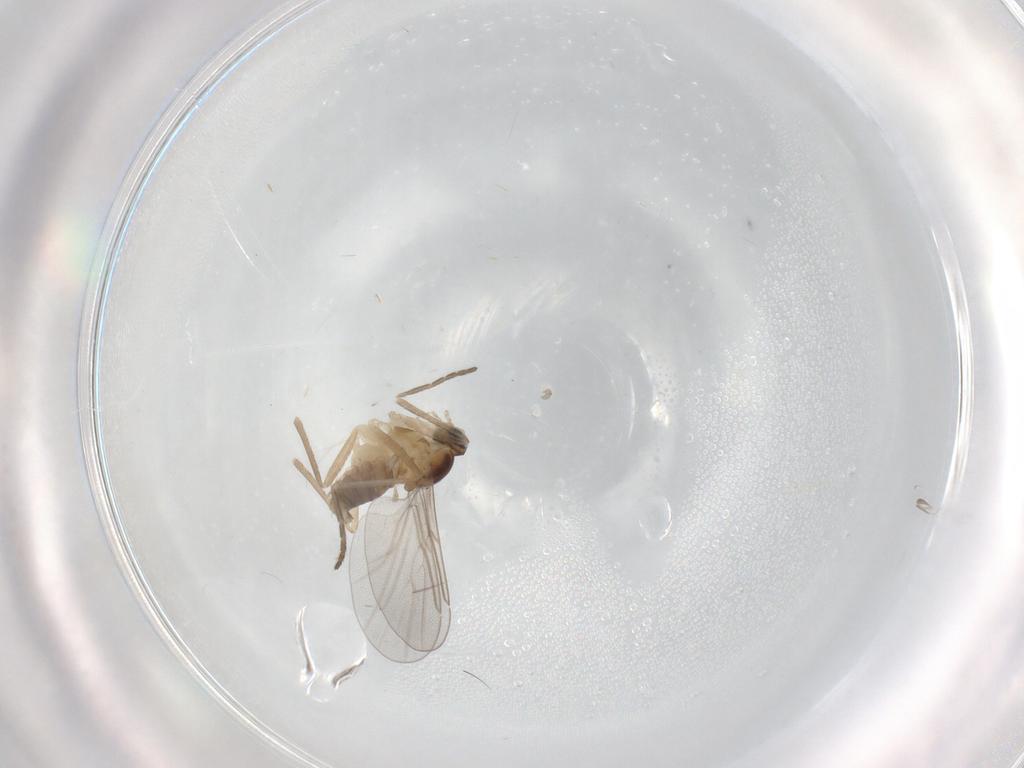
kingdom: Animalia
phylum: Arthropoda
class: Insecta
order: Diptera
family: Cecidomyiidae
